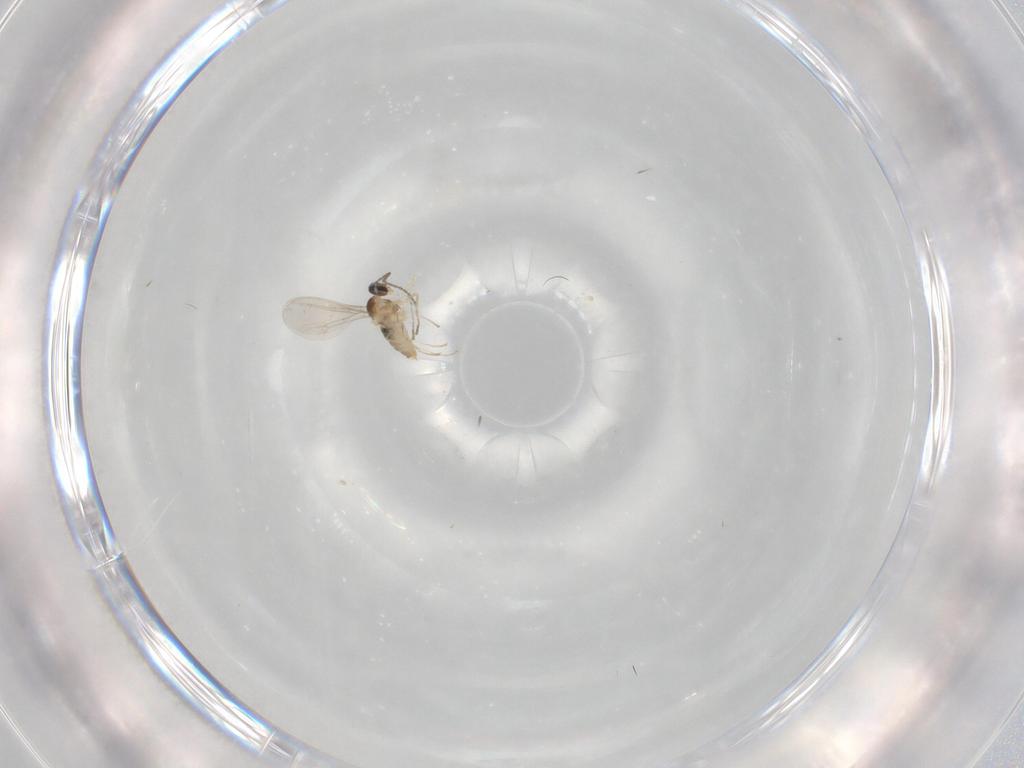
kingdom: Animalia
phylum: Arthropoda
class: Insecta
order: Diptera
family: Cecidomyiidae
